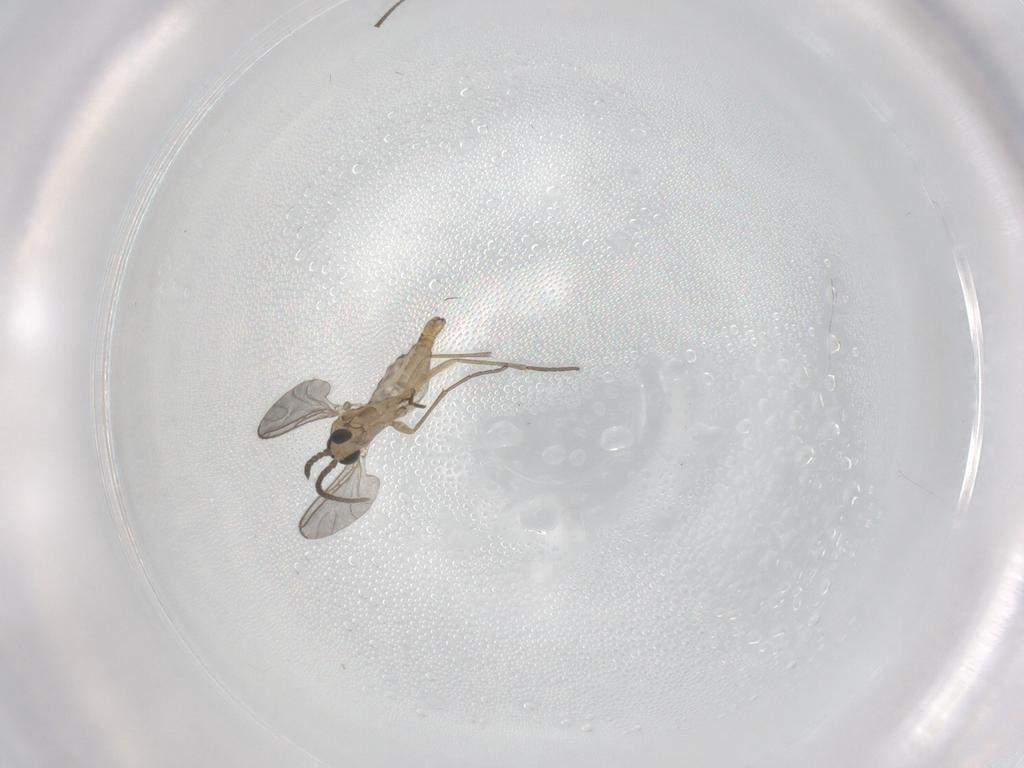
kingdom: Animalia
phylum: Arthropoda
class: Insecta
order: Diptera
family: Sciaridae
